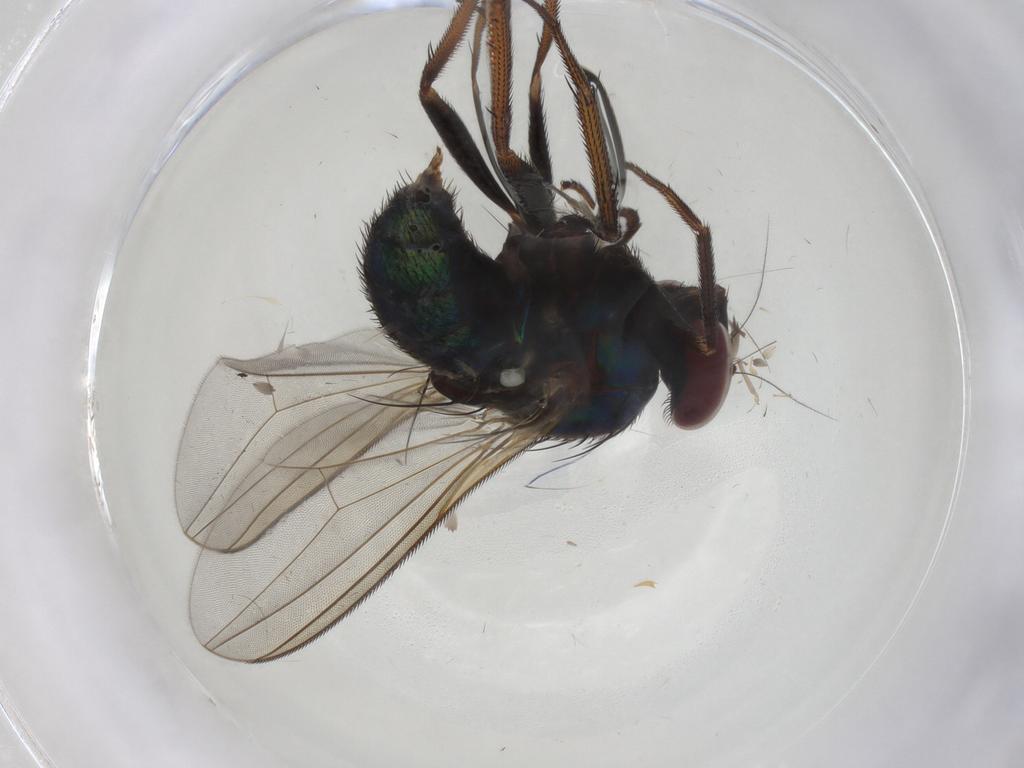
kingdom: Animalia
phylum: Arthropoda
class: Insecta
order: Diptera
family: Dolichopodidae
